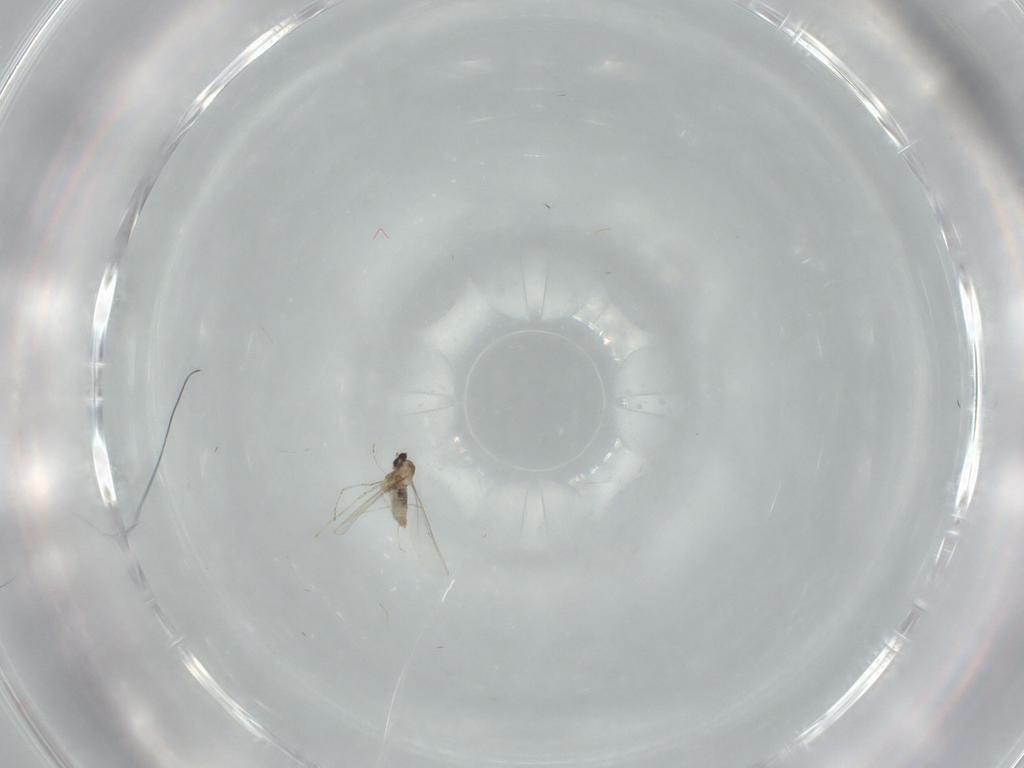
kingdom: Animalia
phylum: Arthropoda
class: Insecta
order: Diptera
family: Cecidomyiidae
